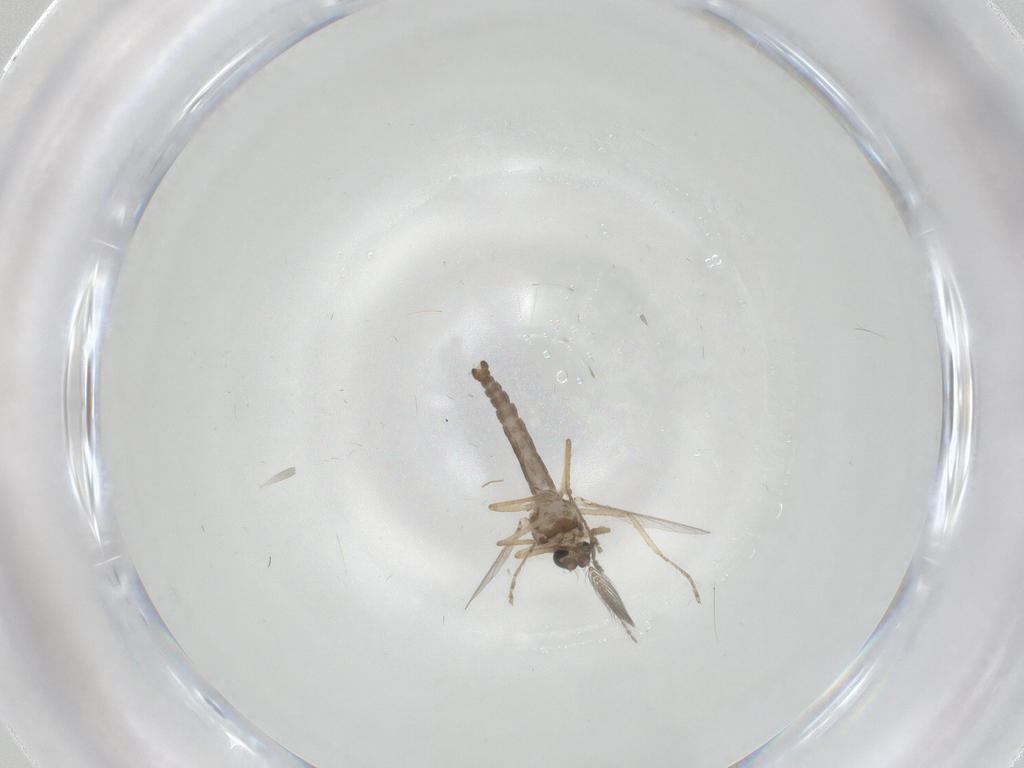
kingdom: Animalia
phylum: Arthropoda
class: Insecta
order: Diptera
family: Ceratopogonidae
